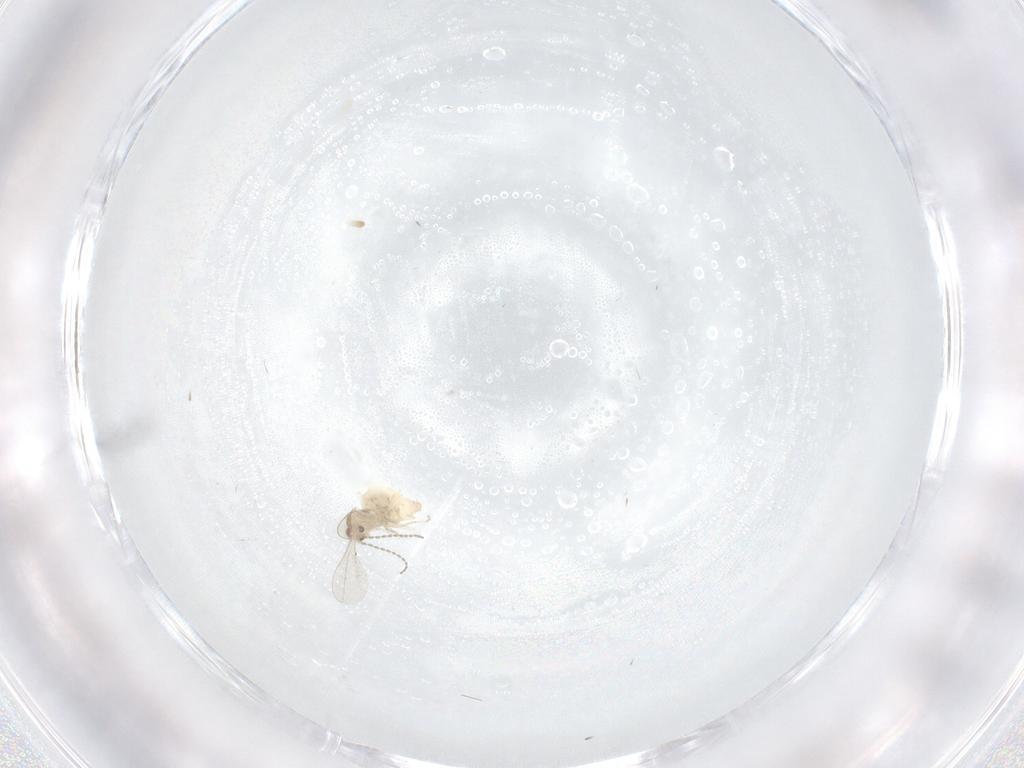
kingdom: Animalia
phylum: Arthropoda
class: Insecta
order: Diptera
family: Cecidomyiidae
